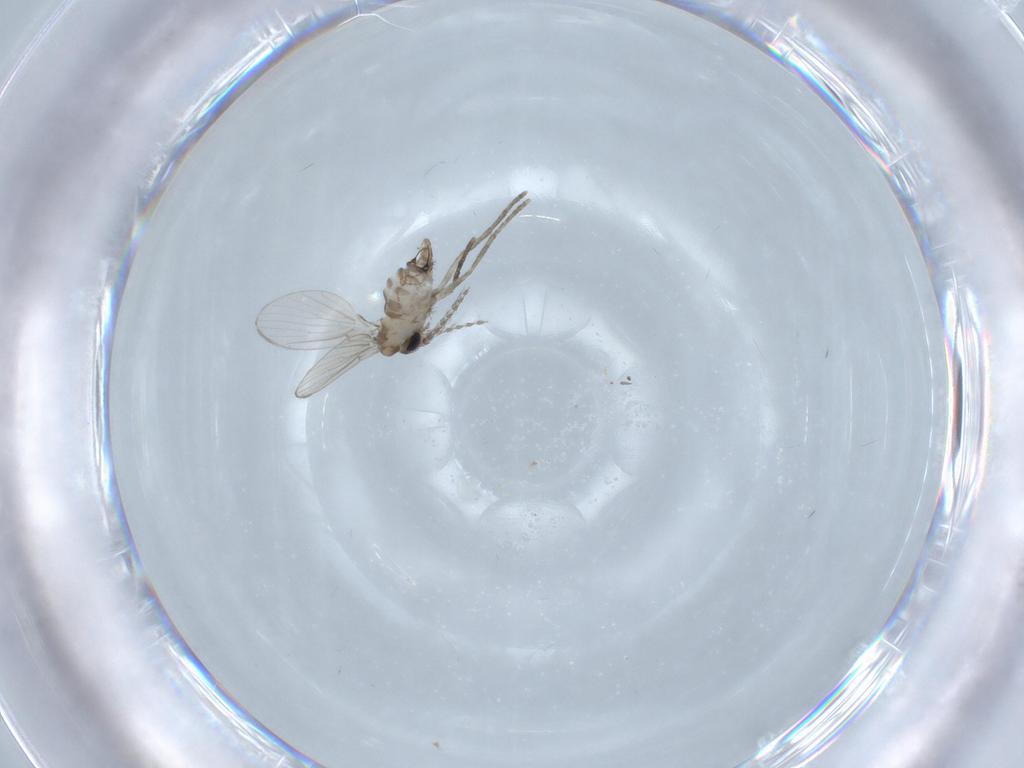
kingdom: Animalia
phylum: Arthropoda
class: Insecta
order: Diptera
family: Psychodidae
